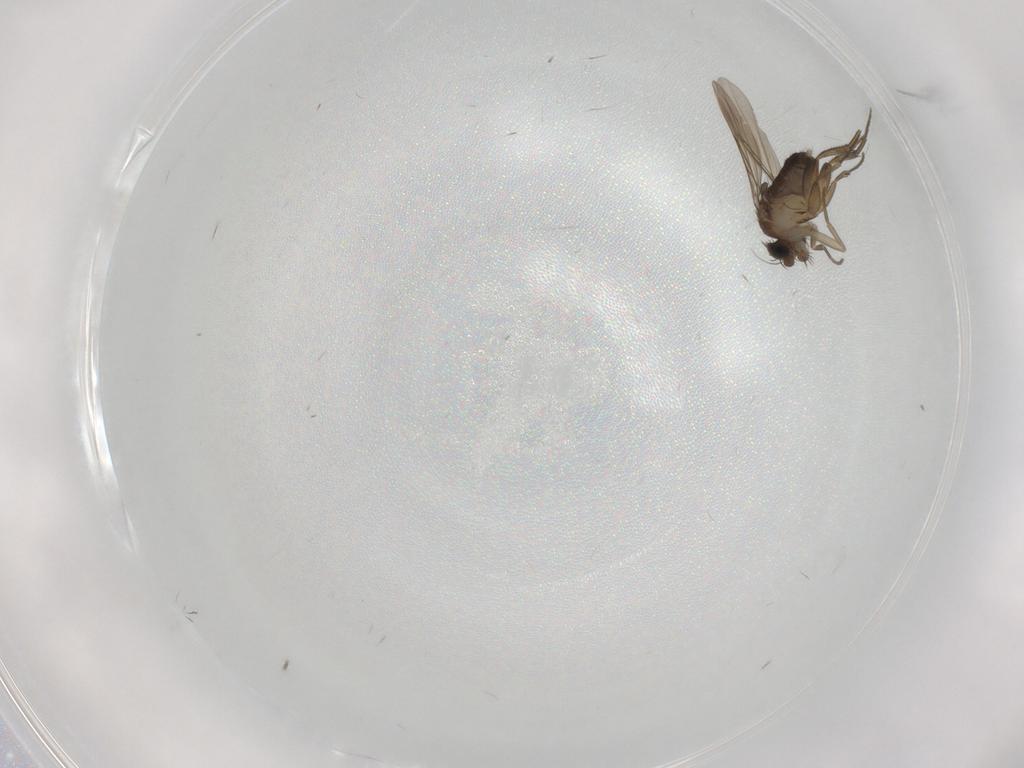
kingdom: Animalia
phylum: Arthropoda
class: Insecta
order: Diptera
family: Phoridae
